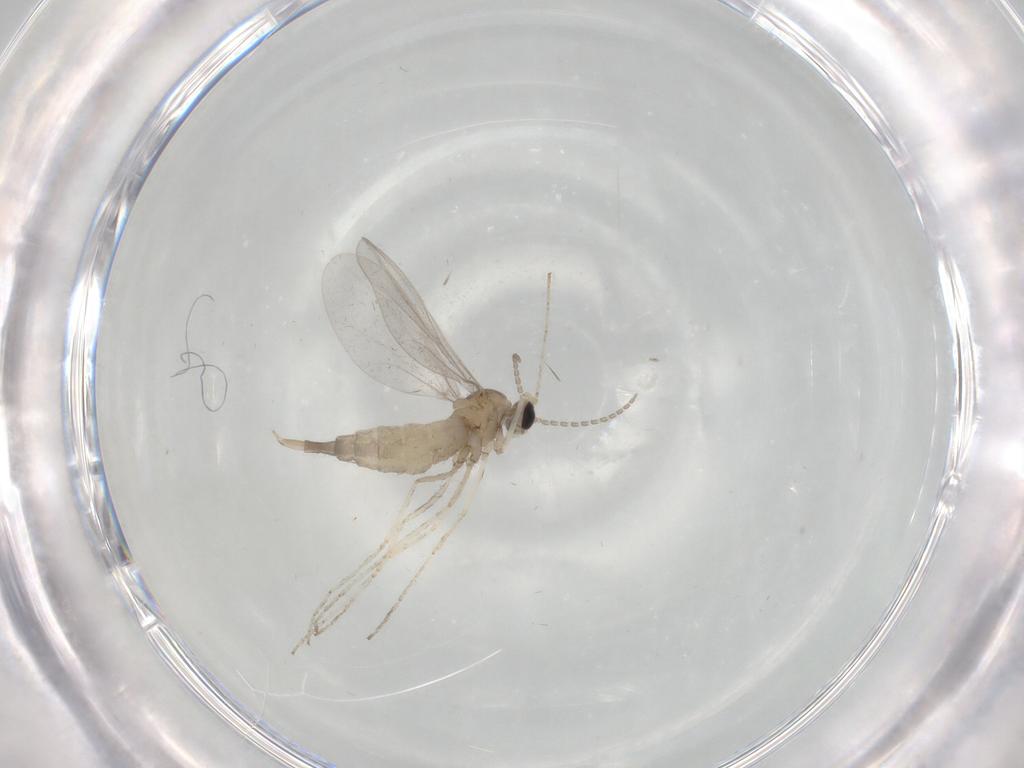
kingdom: Animalia
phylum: Arthropoda
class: Insecta
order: Diptera
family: Cecidomyiidae
